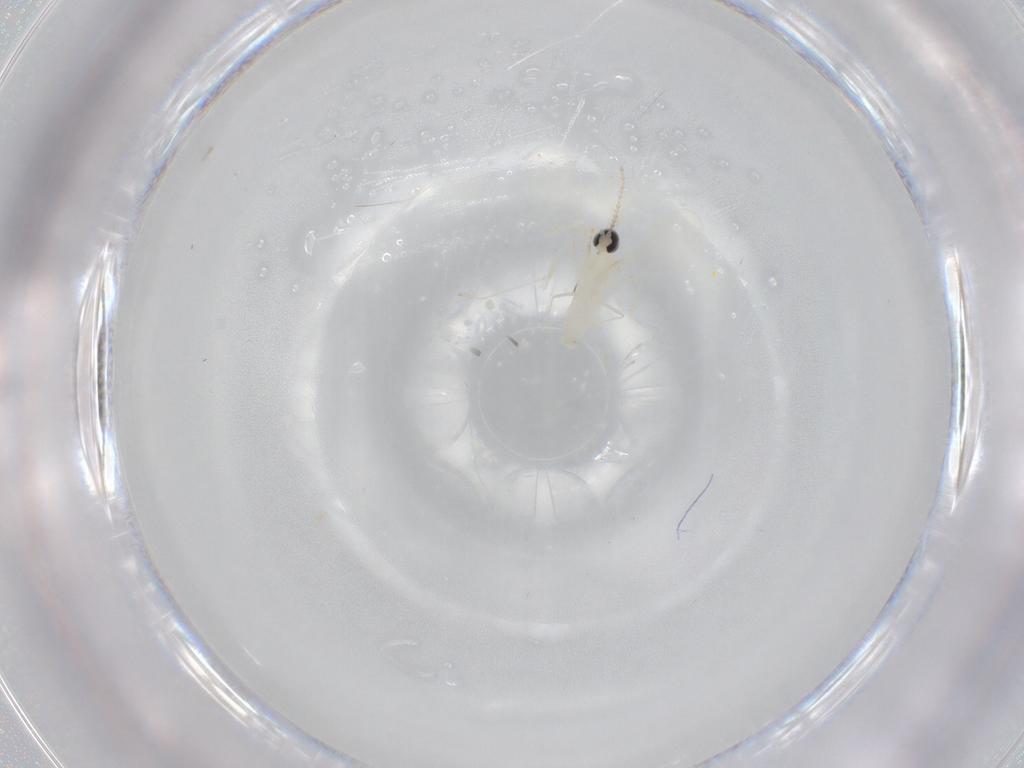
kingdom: Animalia
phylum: Arthropoda
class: Insecta
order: Diptera
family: Cecidomyiidae
